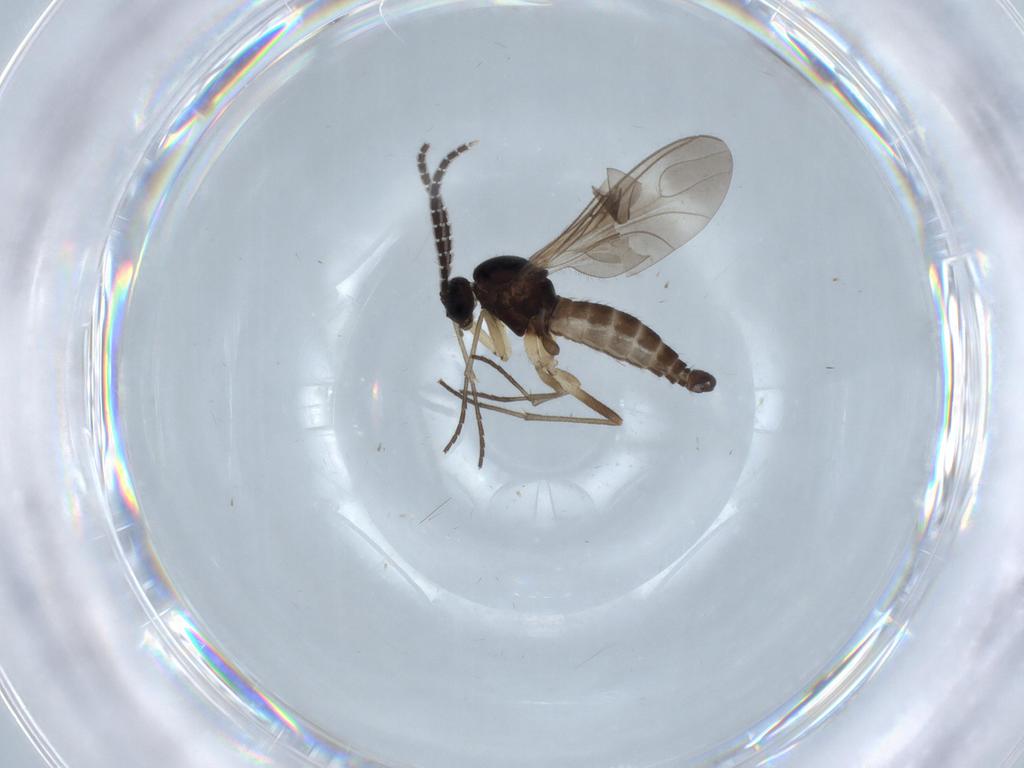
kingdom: Animalia
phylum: Arthropoda
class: Insecta
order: Diptera
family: Sciaridae
